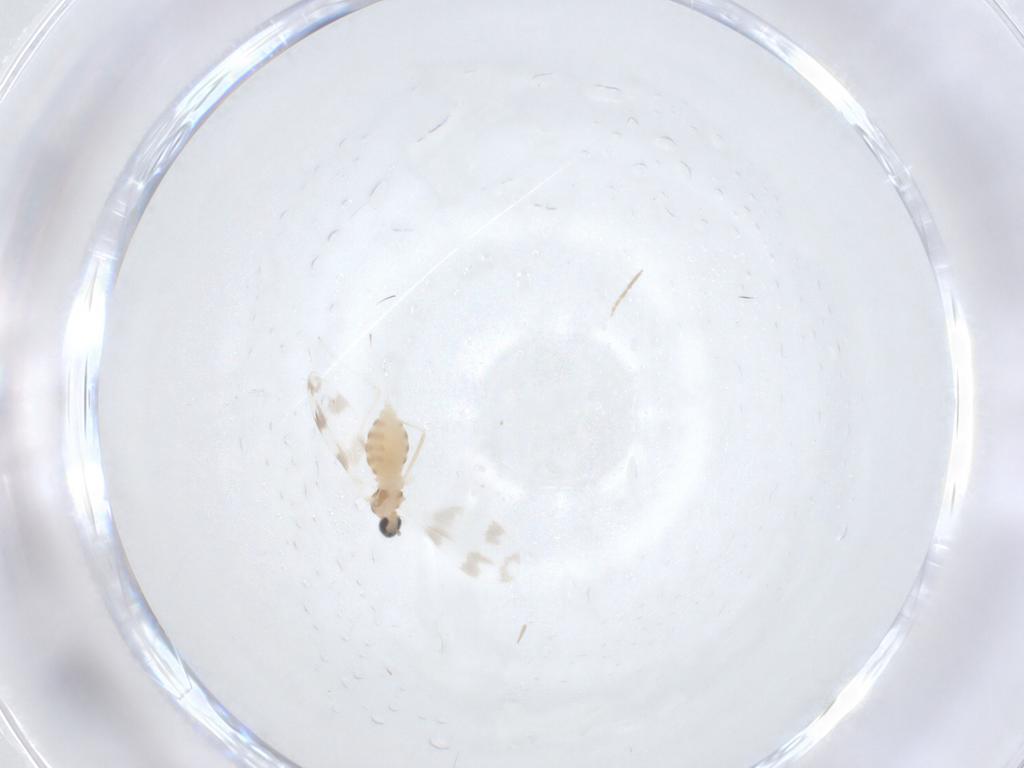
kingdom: Animalia
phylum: Arthropoda
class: Insecta
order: Diptera
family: Cecidomyiidae
